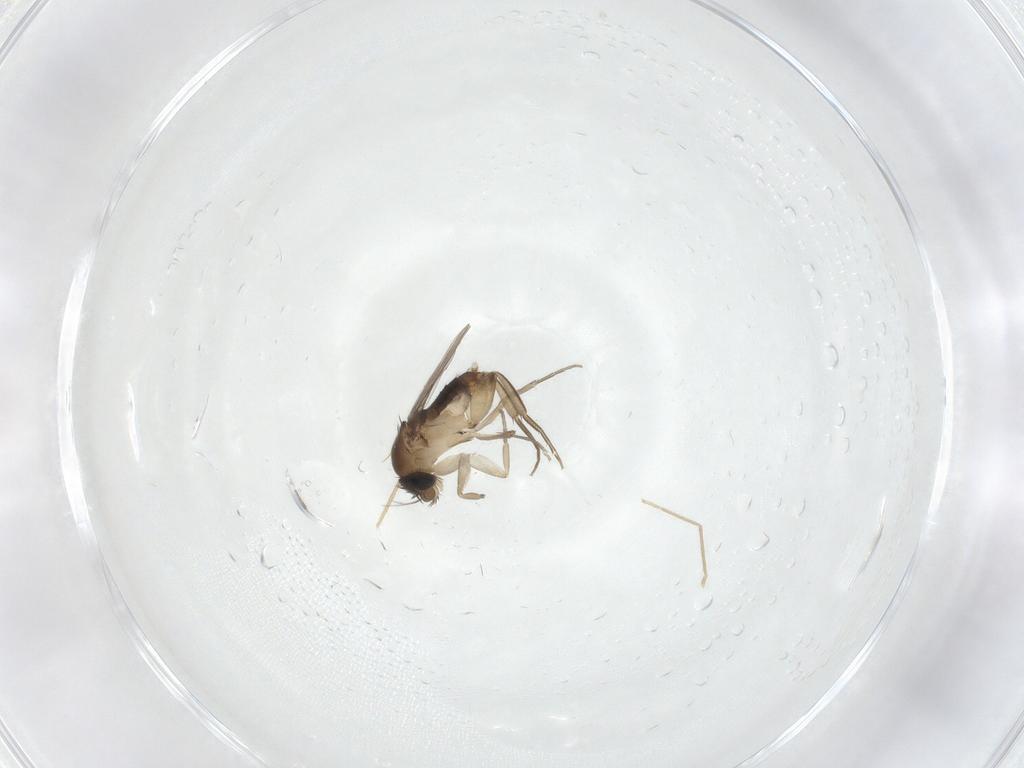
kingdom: Animalia
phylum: Arthropoda
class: Insecta
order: Diptera
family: Phoridae
